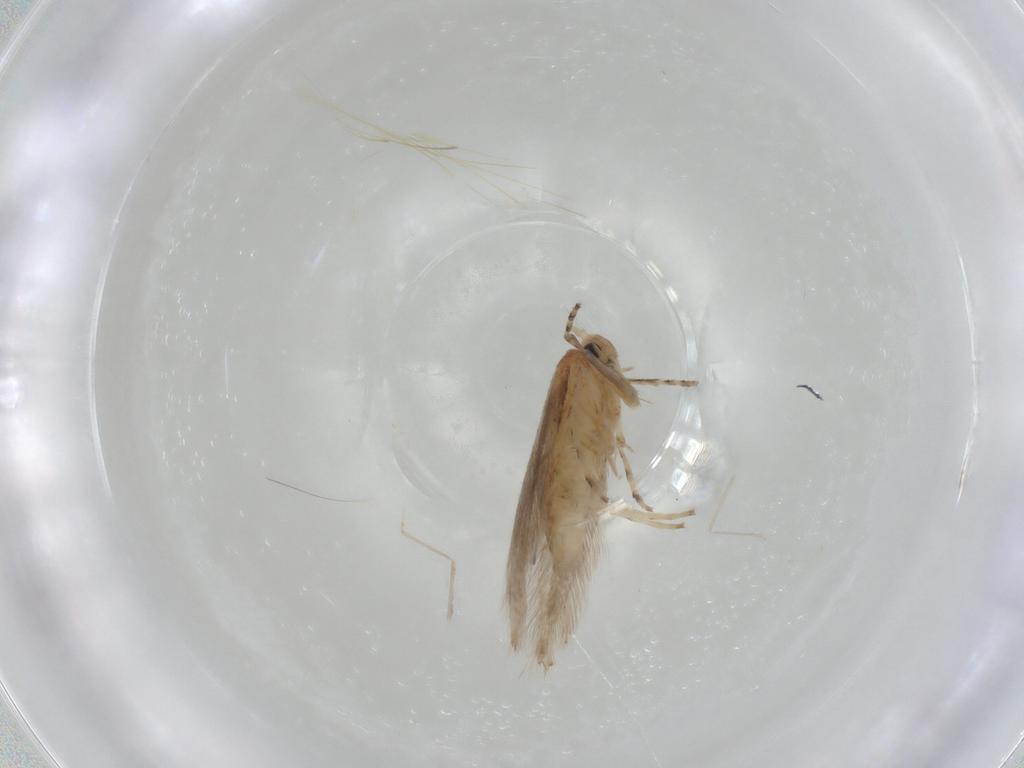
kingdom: Animalia
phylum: Arthropoda
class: Insecta
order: Lepidoptera
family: Gracillariidae
